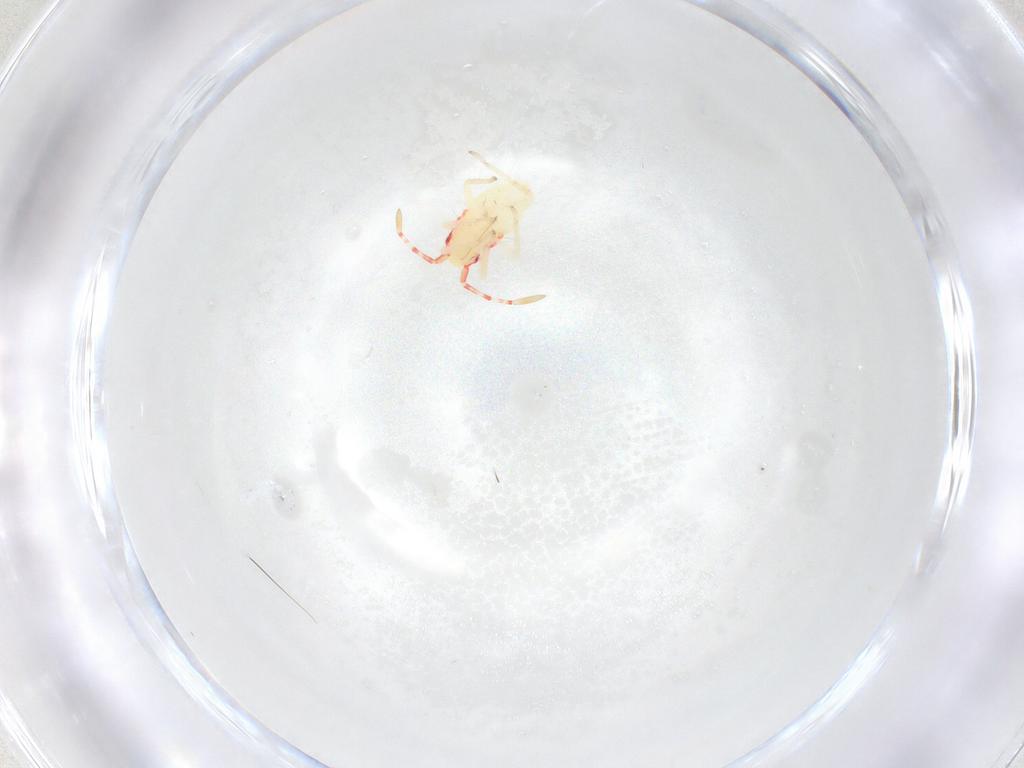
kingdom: Animalia
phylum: Arthropoda
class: Insecta
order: Hemiptera
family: Miridae
